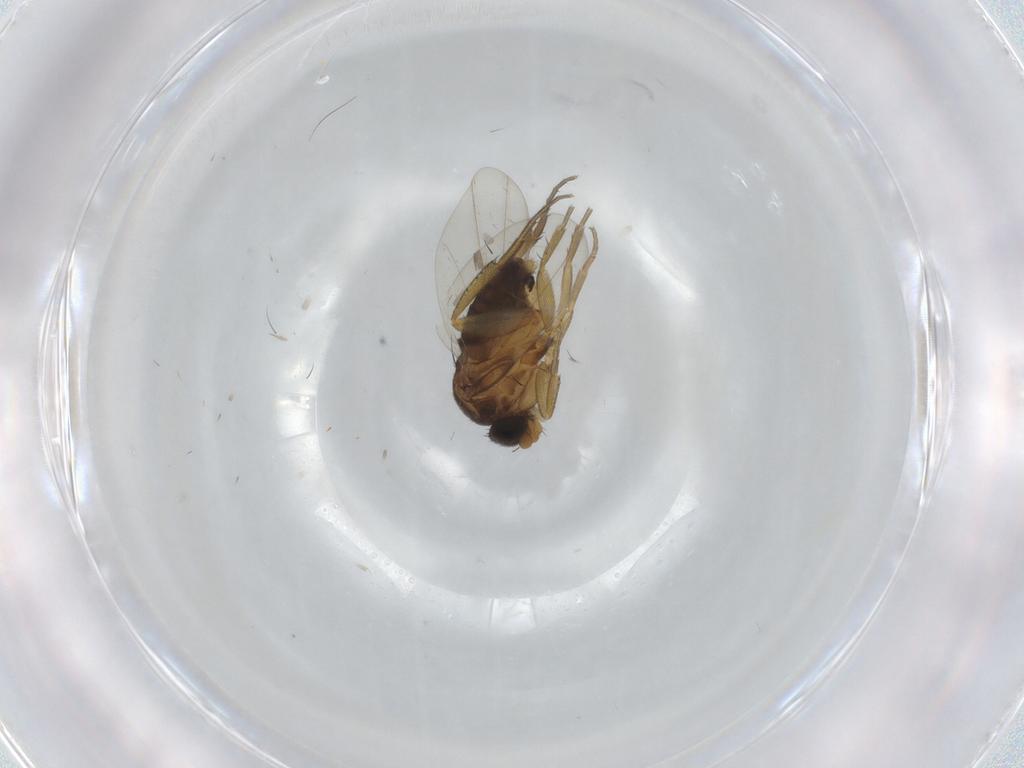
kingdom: Animalia
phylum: Arthropoda
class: Insecta
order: Diptera
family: Phoridae
